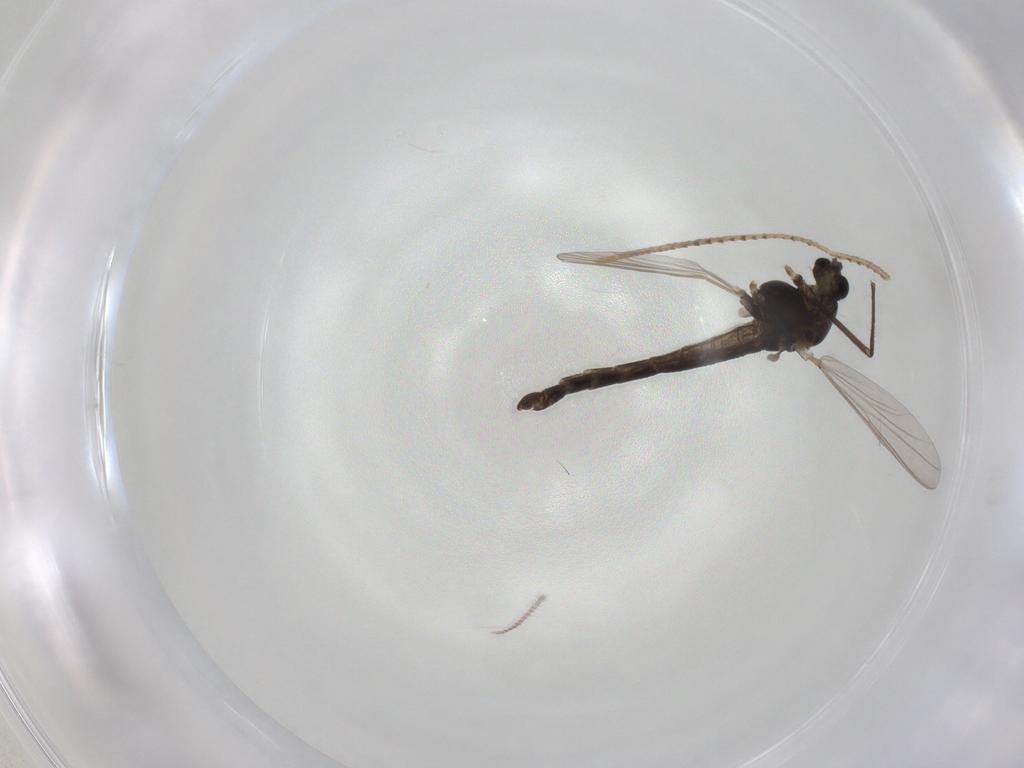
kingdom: Animalia
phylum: Arthropoda
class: Insecta
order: Diptera
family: Chironomidae
